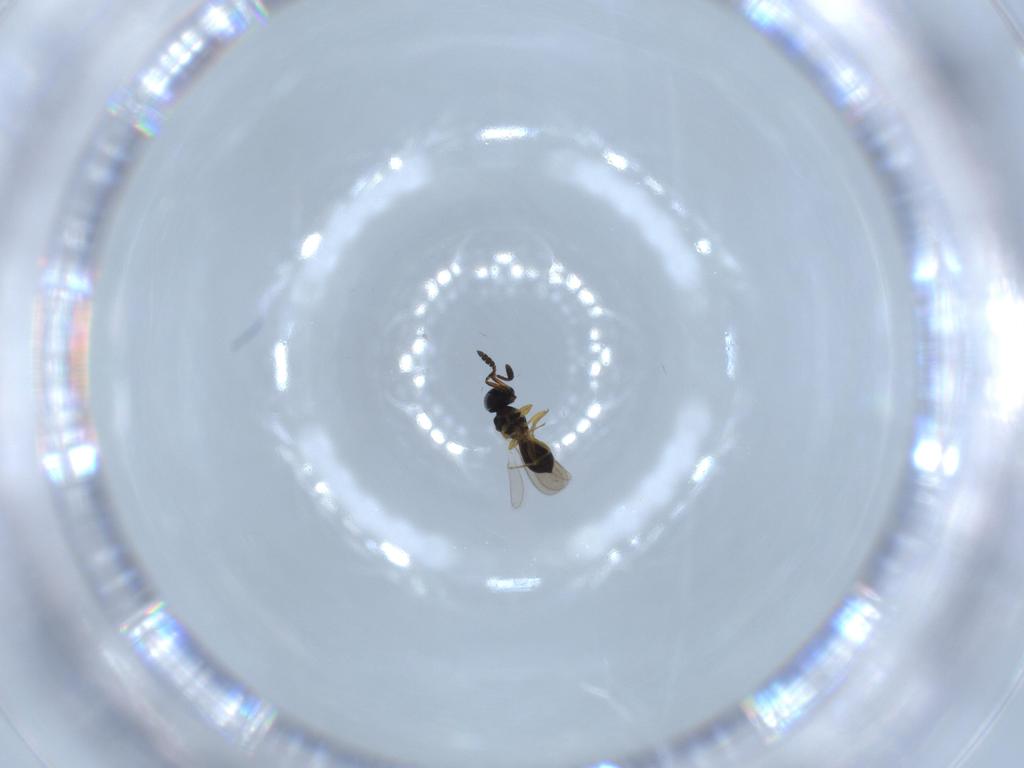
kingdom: Animalia
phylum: Arthropoda
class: Insecta
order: Hymenoptera
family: Scelionidae
